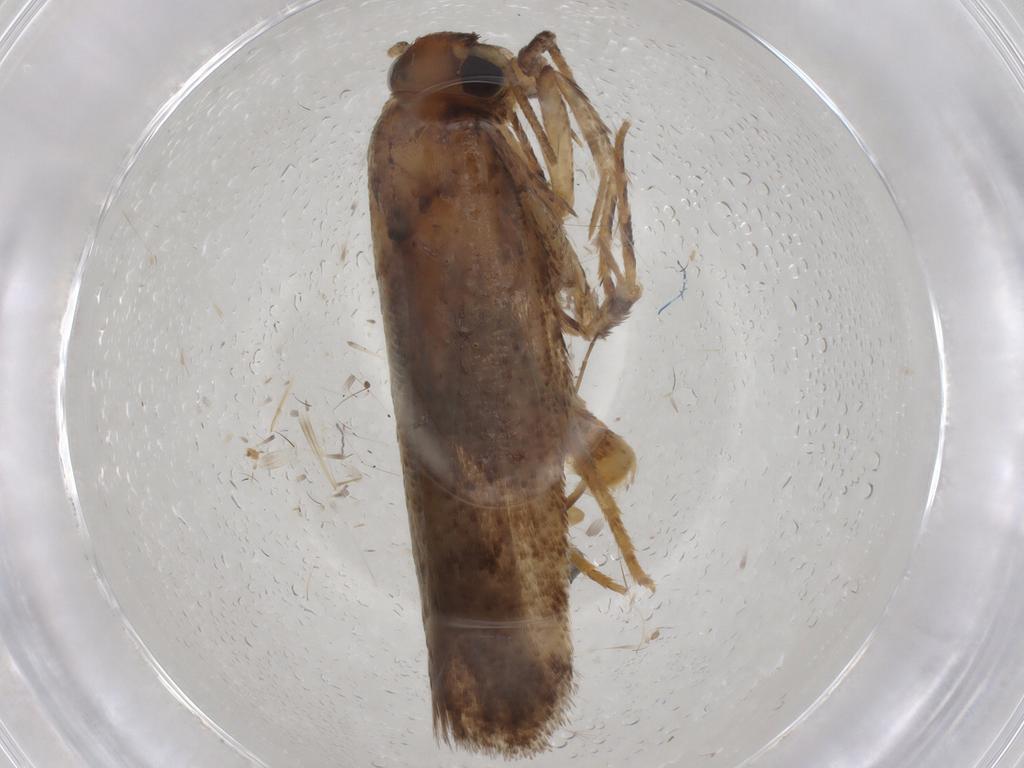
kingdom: Animalia
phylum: Arthropoda
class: Insecta
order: Lepidoptera
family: Gelechiidae
